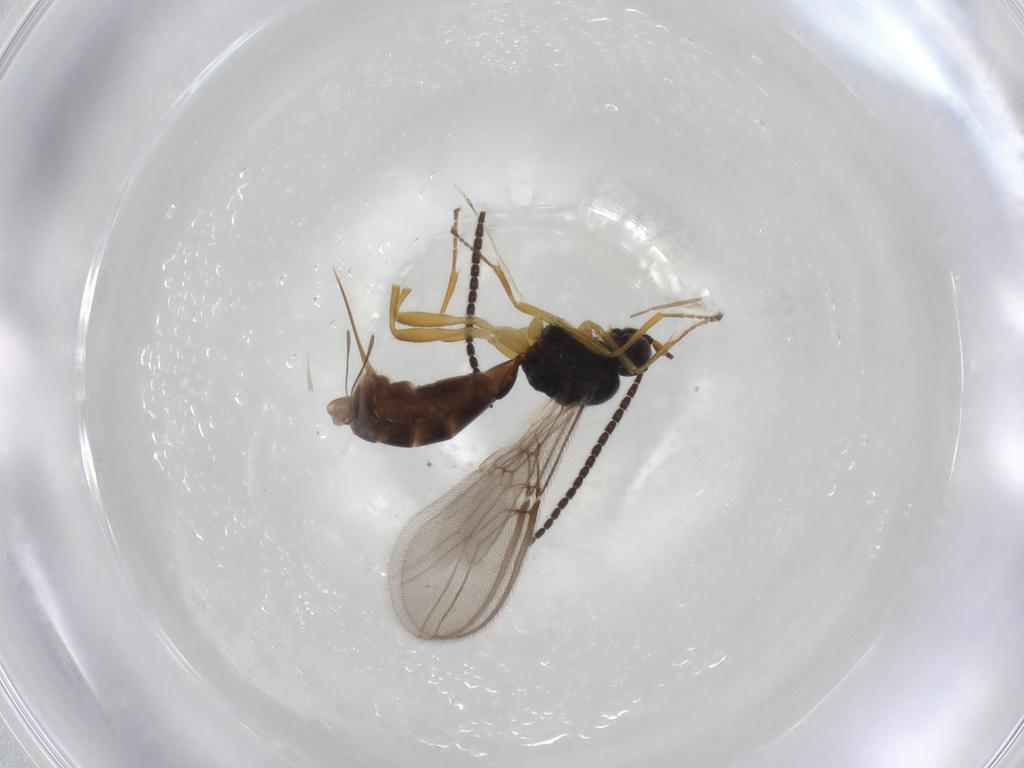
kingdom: Animalia
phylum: Arthropoda
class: Insecta
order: Hymenoptera
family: Braconidae
